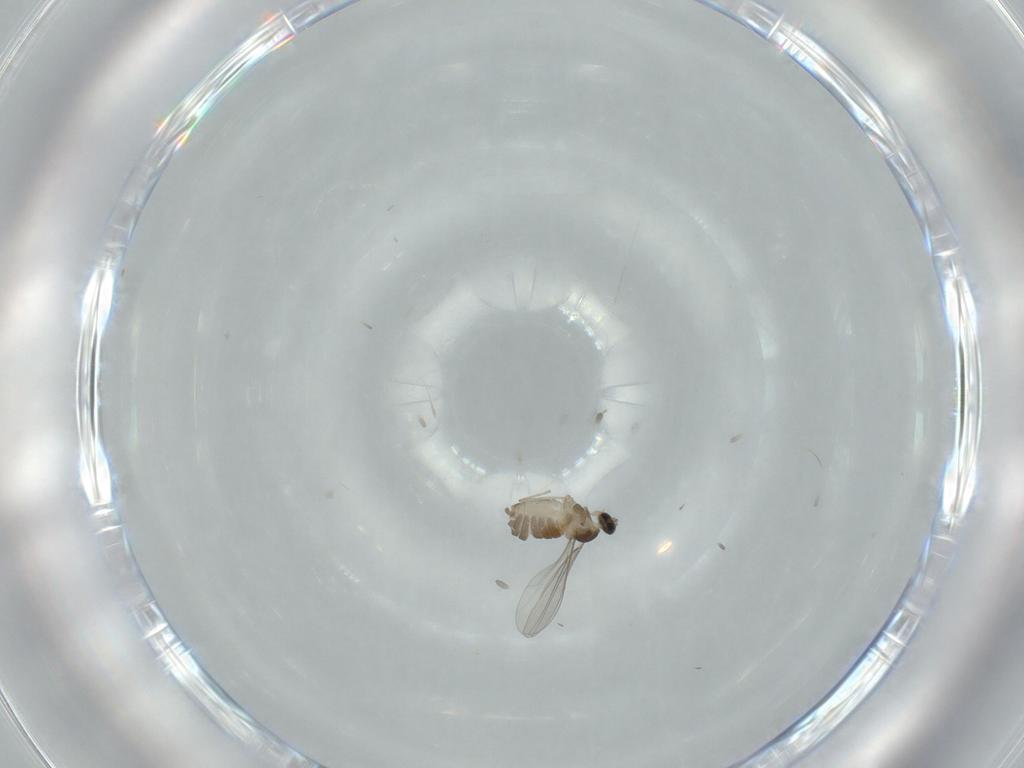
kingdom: Animalia
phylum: Arthropoda
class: Insecta
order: Diptera
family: Cecidomyiidae
